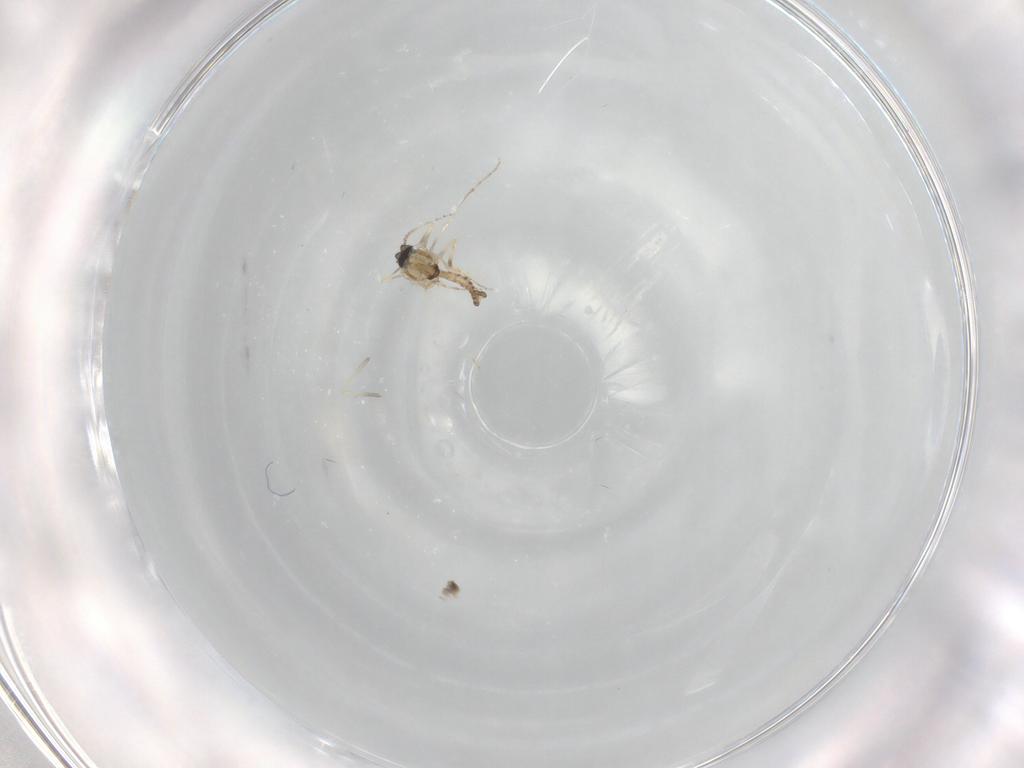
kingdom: Animalia
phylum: Arthropoda
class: Insecta
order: Diptera
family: Ceratopogonidae
